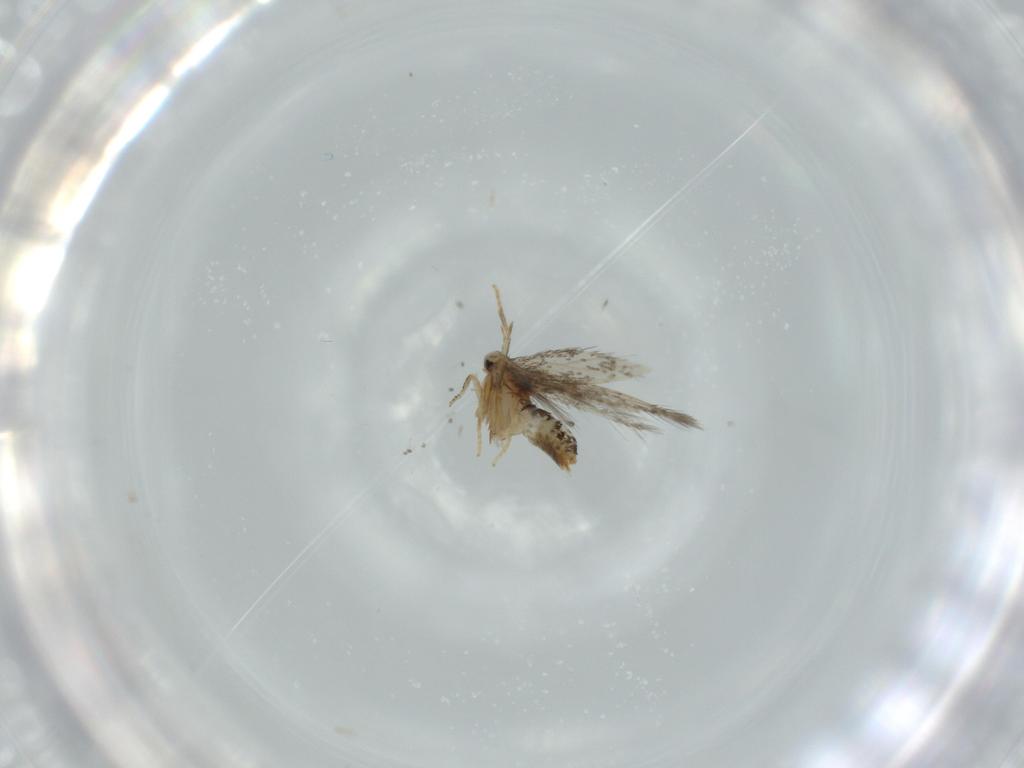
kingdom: Animalia
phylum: Arthropoda
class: Insecta
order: Lepidoptera
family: Nepticulidae
